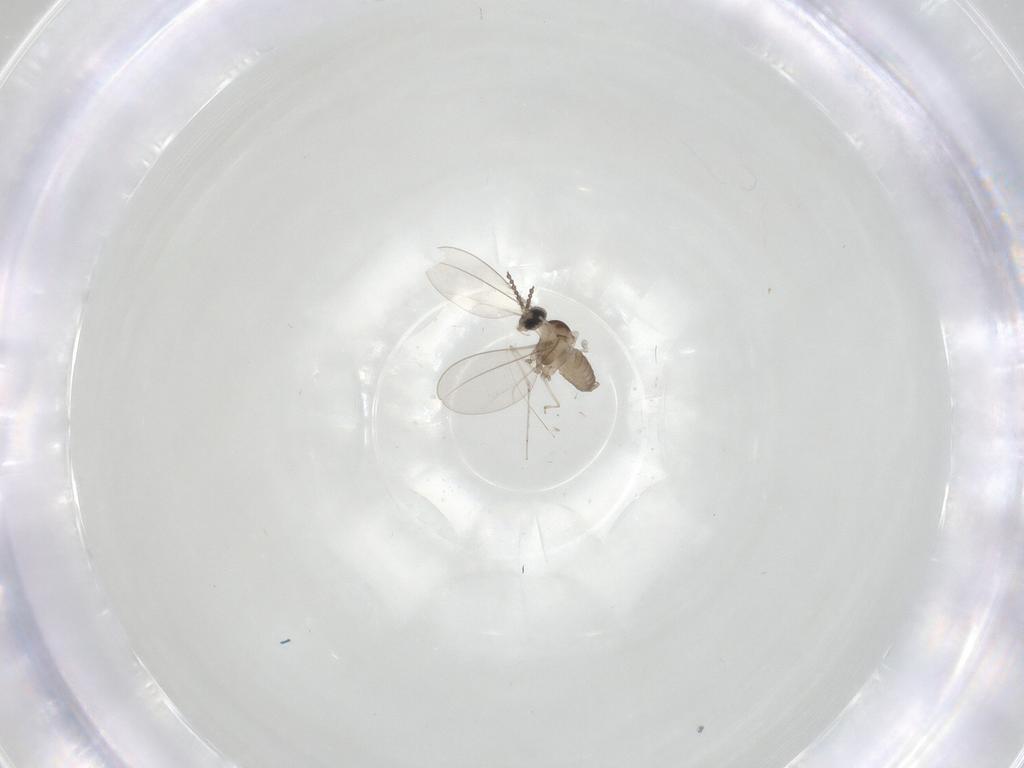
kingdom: Animalia
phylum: Arthropoda
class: Insecta
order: Diptera
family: Cecidomyiidae
